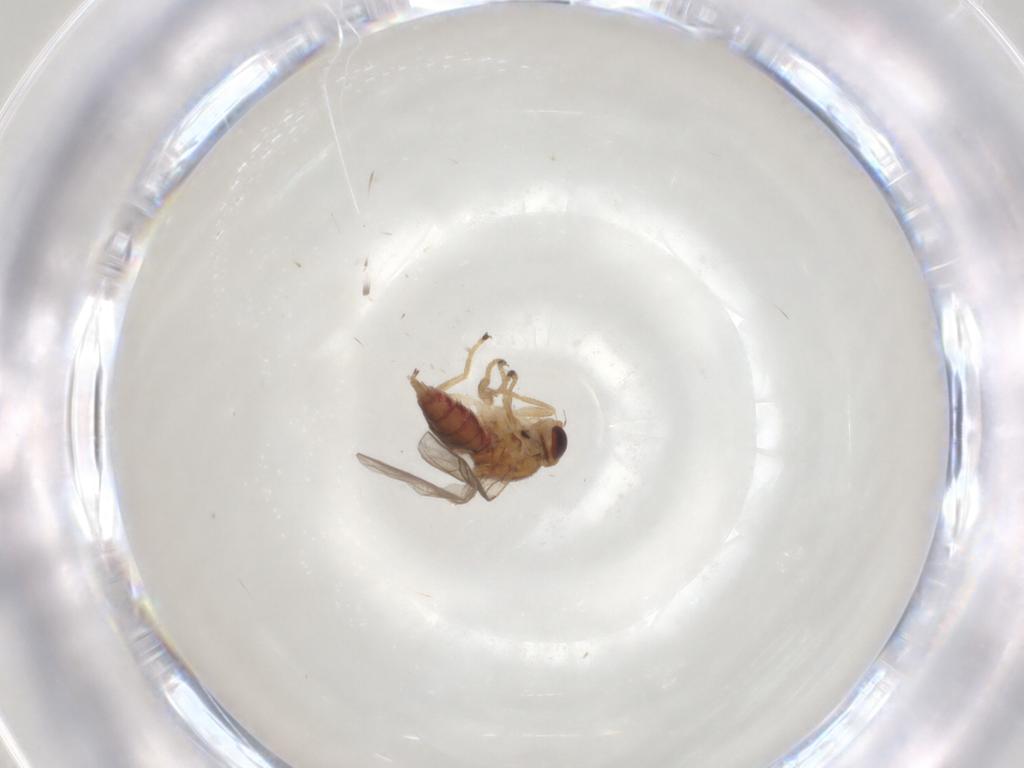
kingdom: Animalia
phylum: Arthropoda
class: Insecta
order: Diptera
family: Chloropidae
